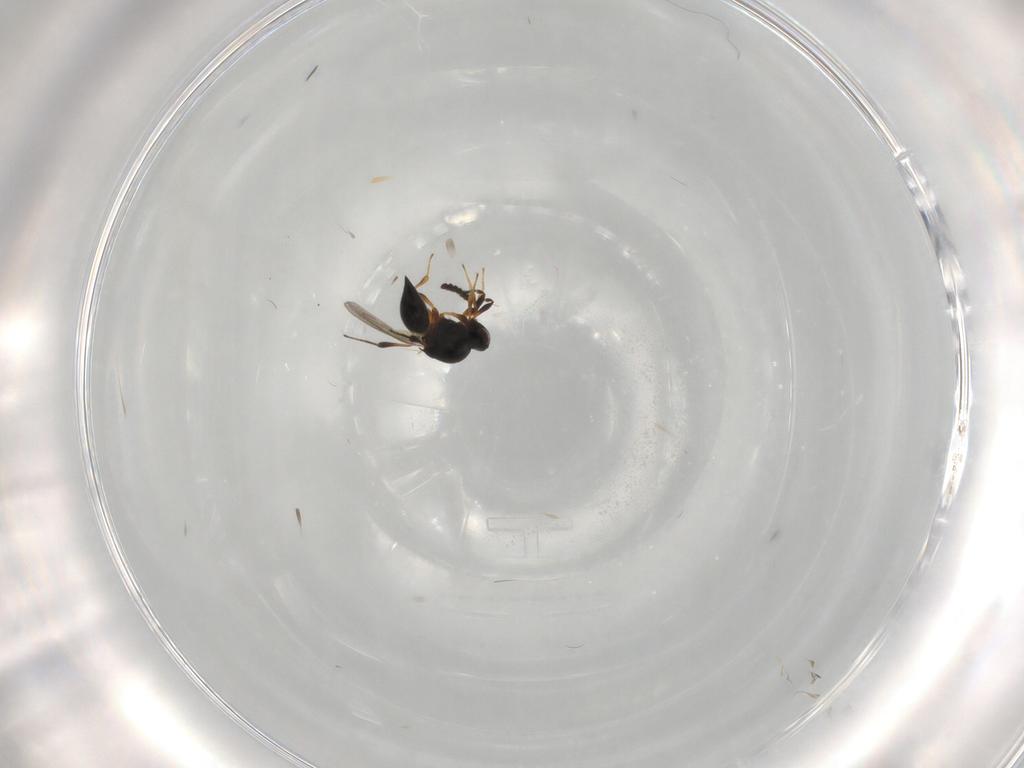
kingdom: Animalia
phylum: Arthropoda
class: Insecta
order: Hymenoptera
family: Platygastridae
